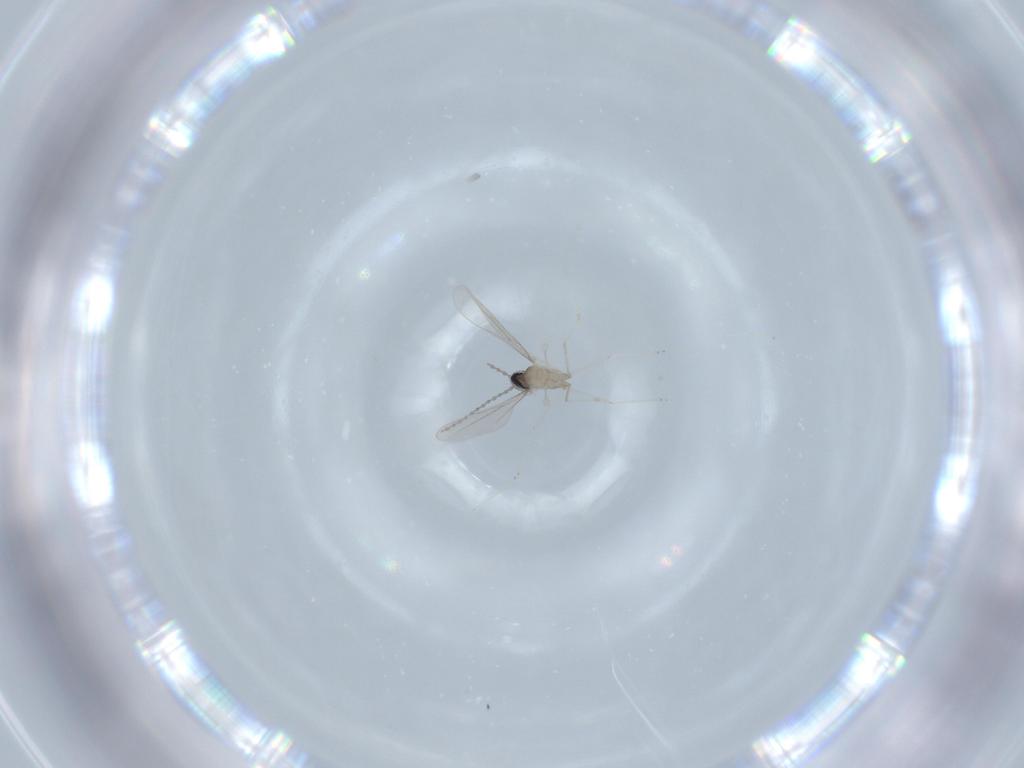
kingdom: Animalia
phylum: Arthropoda
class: Insecta
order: Diptera
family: Cecidomyiidae
